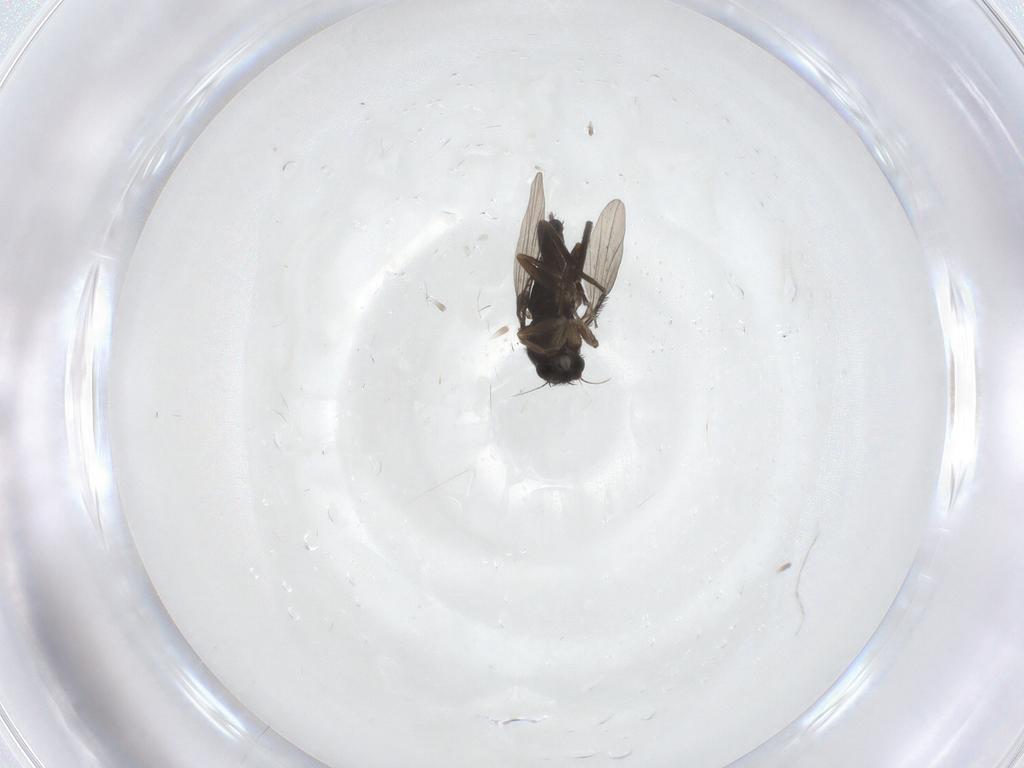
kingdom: Animalia
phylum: Arthropoda
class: Insecta
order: Diptera
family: Phoridae
